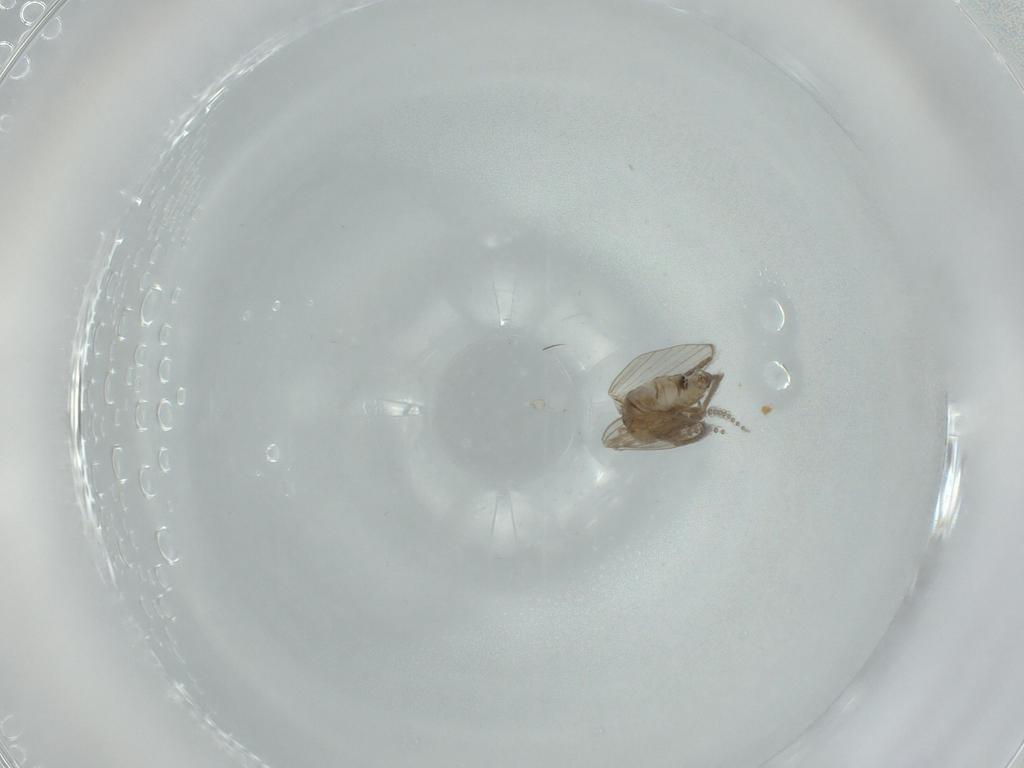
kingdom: Animalia
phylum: Arthropoda
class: Insecta
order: Diptera
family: Psychodidae
